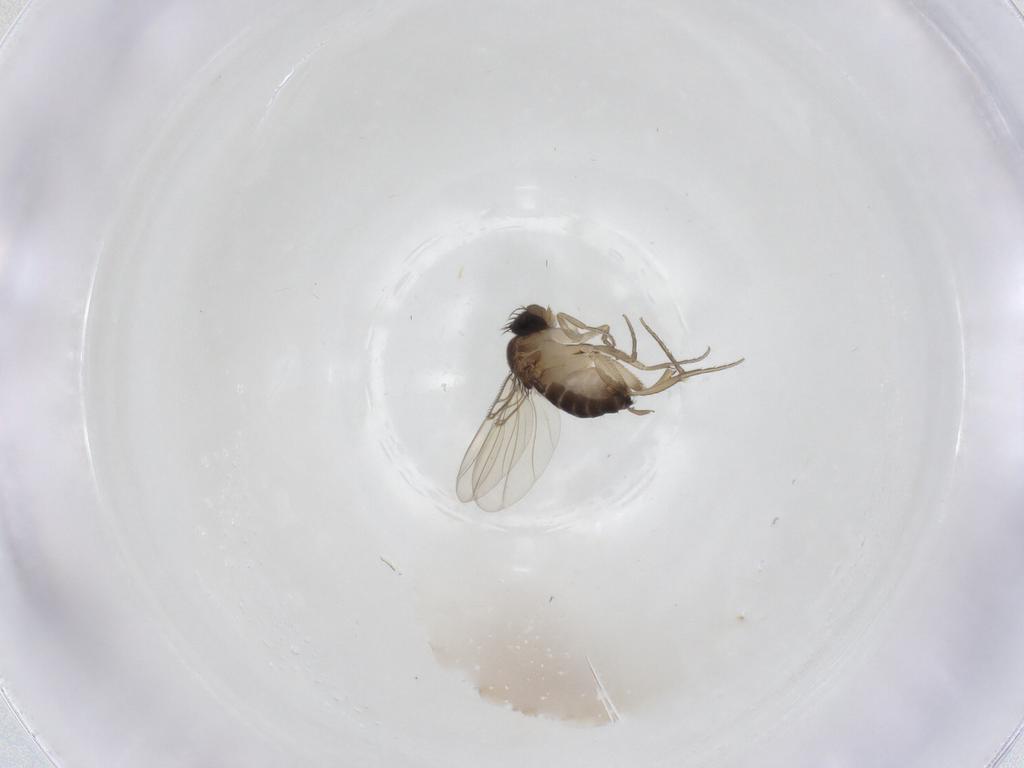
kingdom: Animalia
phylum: Arthropoda
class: Insecta
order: Diptera
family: Phoridae
